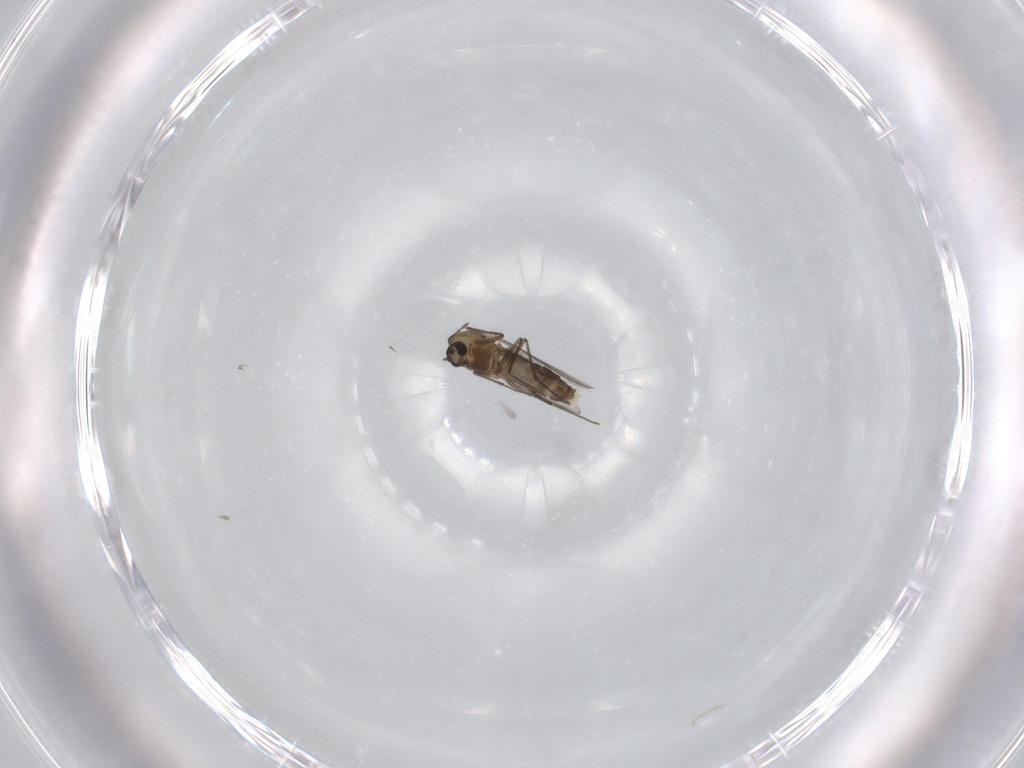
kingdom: Animalia
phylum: Arthropoda
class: Insecta
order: Diptera
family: Chironomidae
